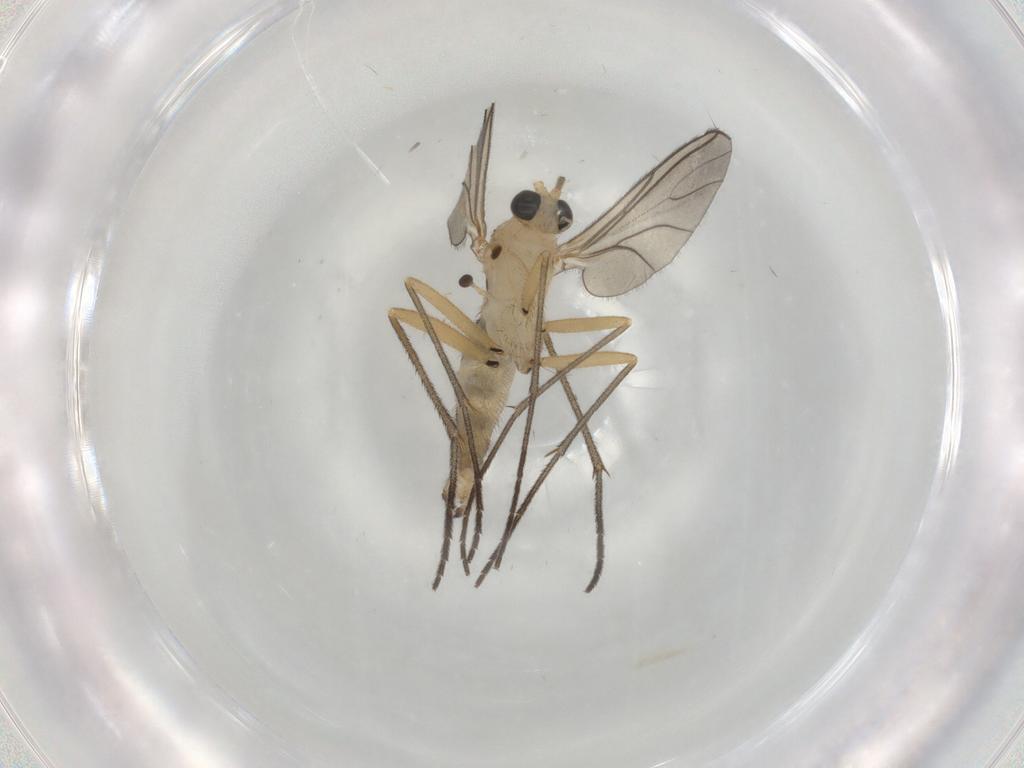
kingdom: Animalia
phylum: Arthropoda
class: Insecta
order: Diptera
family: Sciaridae
